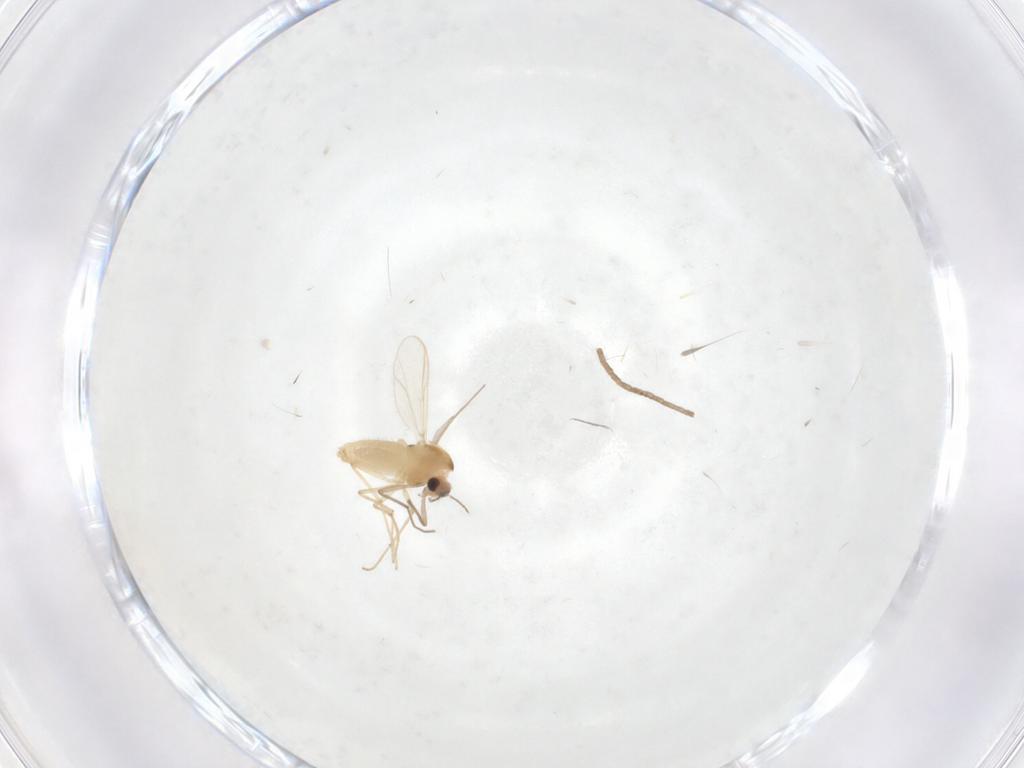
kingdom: Animalia
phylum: Arthropoda
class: Insecta
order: Diptera
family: Chironomidae
